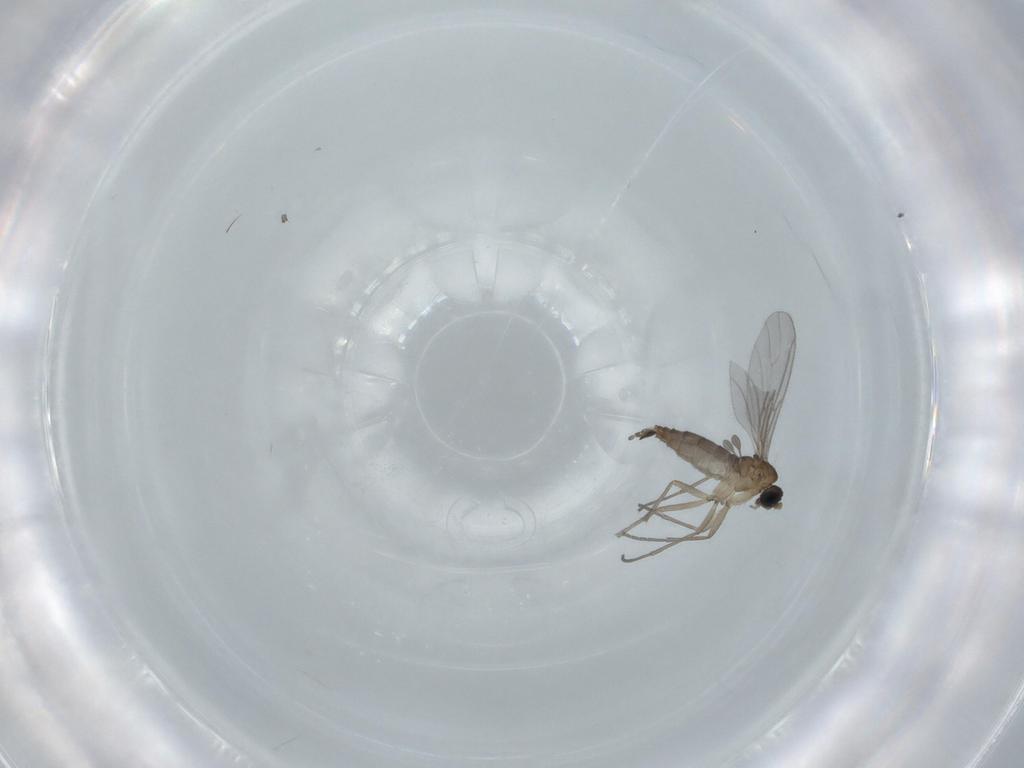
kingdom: Animalia
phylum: Arthropoda
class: Insecta
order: Diptera
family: Sciaridae
